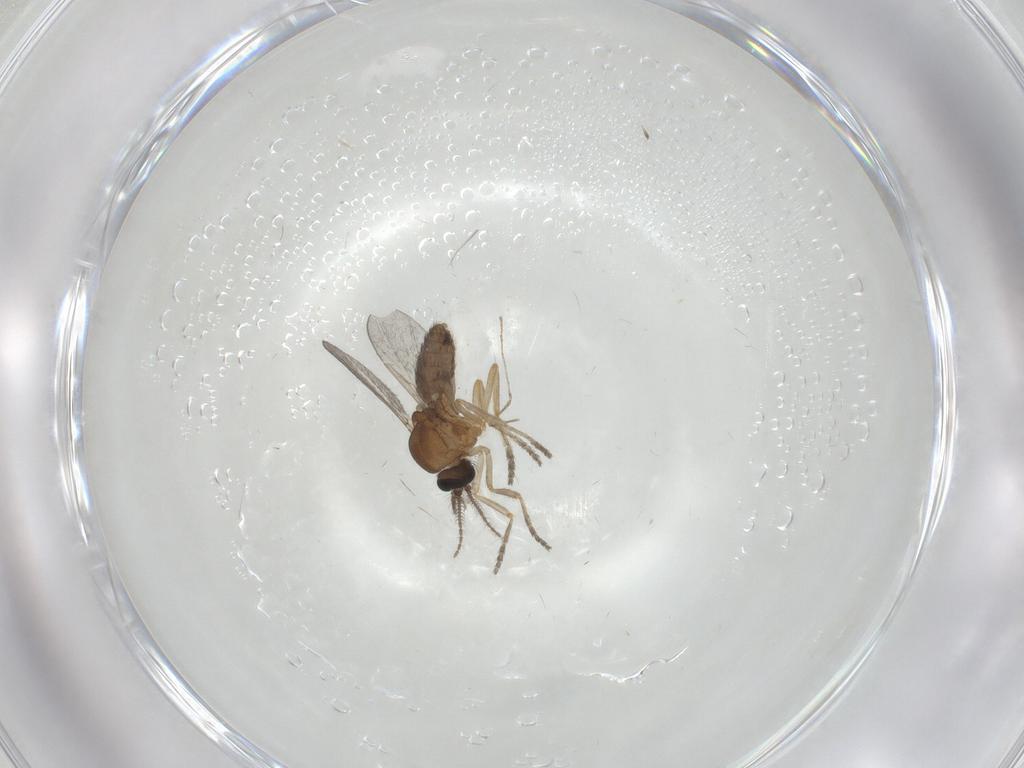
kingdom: Animalia
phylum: Arthropoda
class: Insecta
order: Diptera
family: Ceratopogonidae
